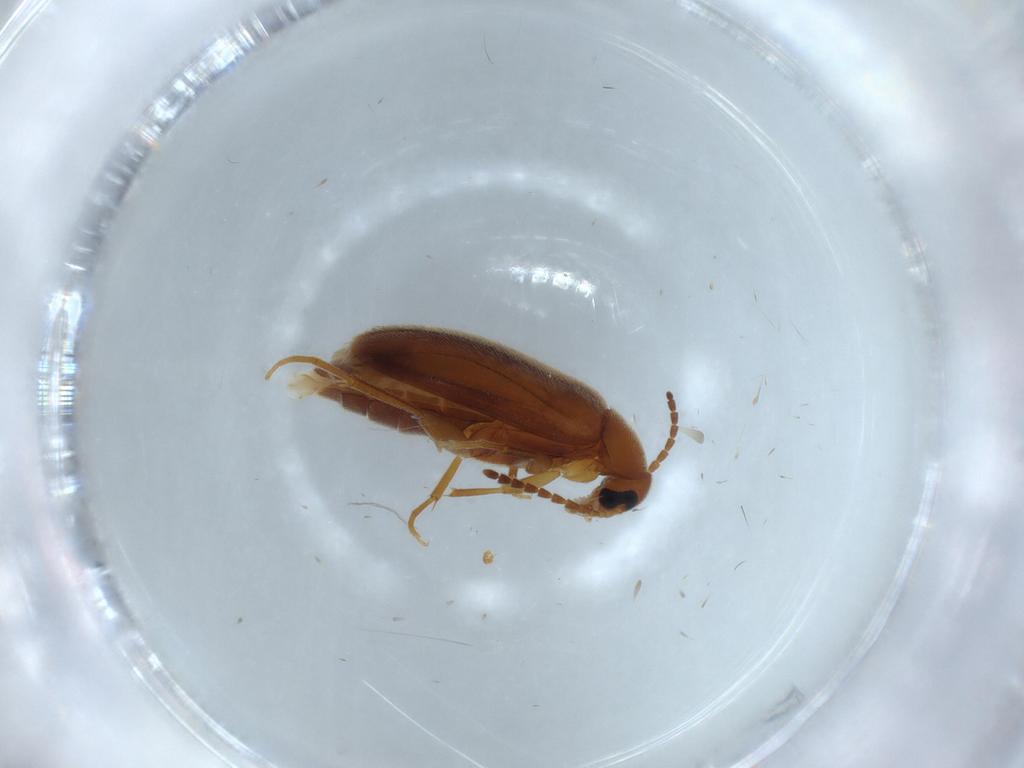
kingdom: Animalia
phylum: Arthropoda
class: Insecta
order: Coleoptera
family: Scraptiidae
